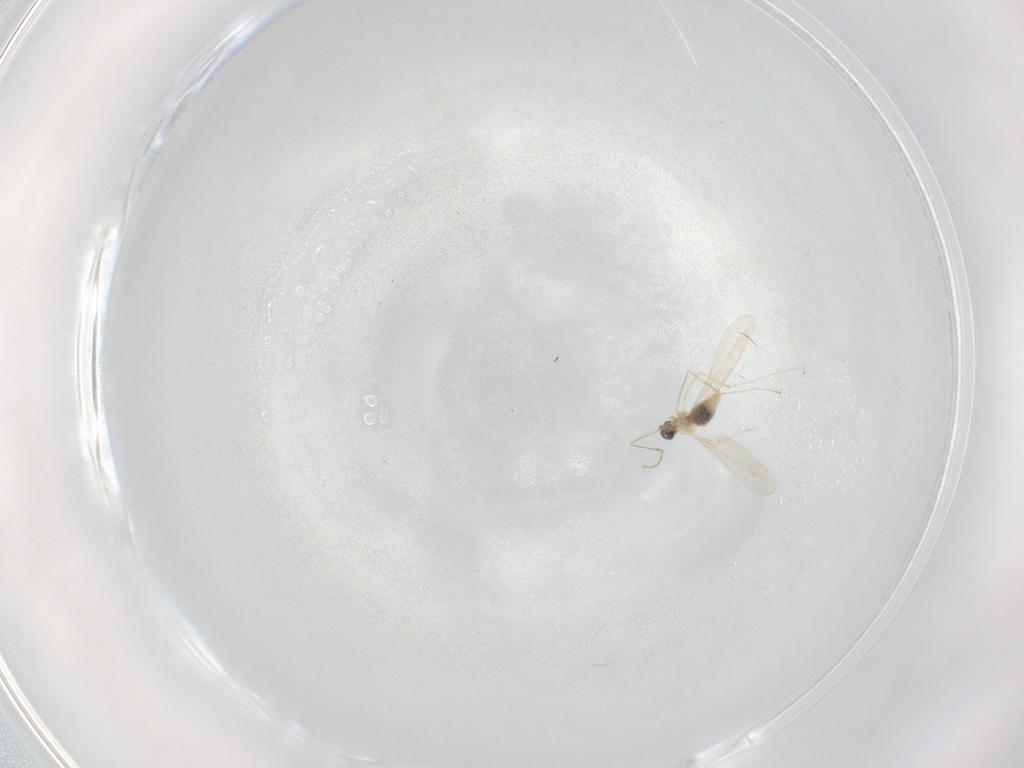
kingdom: Animalia
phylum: Arthropoda
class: Insecta
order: Diptera
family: Cecidomyiidae
